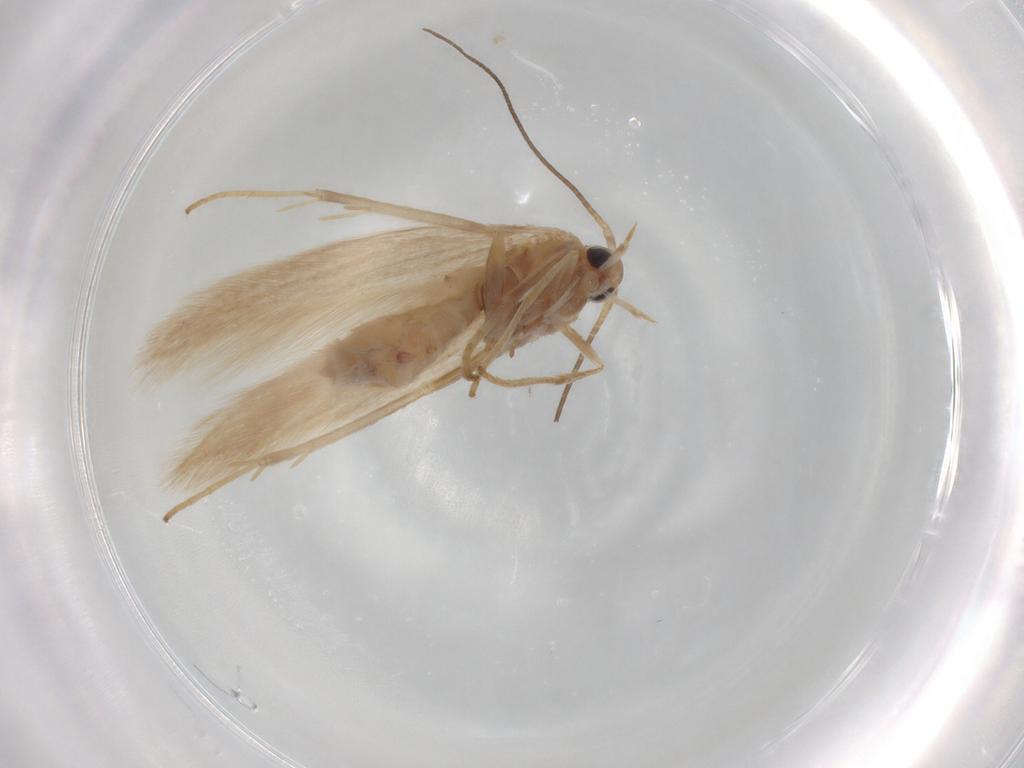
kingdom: Animalia
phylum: Arthropoda
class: Insecta
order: Lepidoptera
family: Coleophoridae
